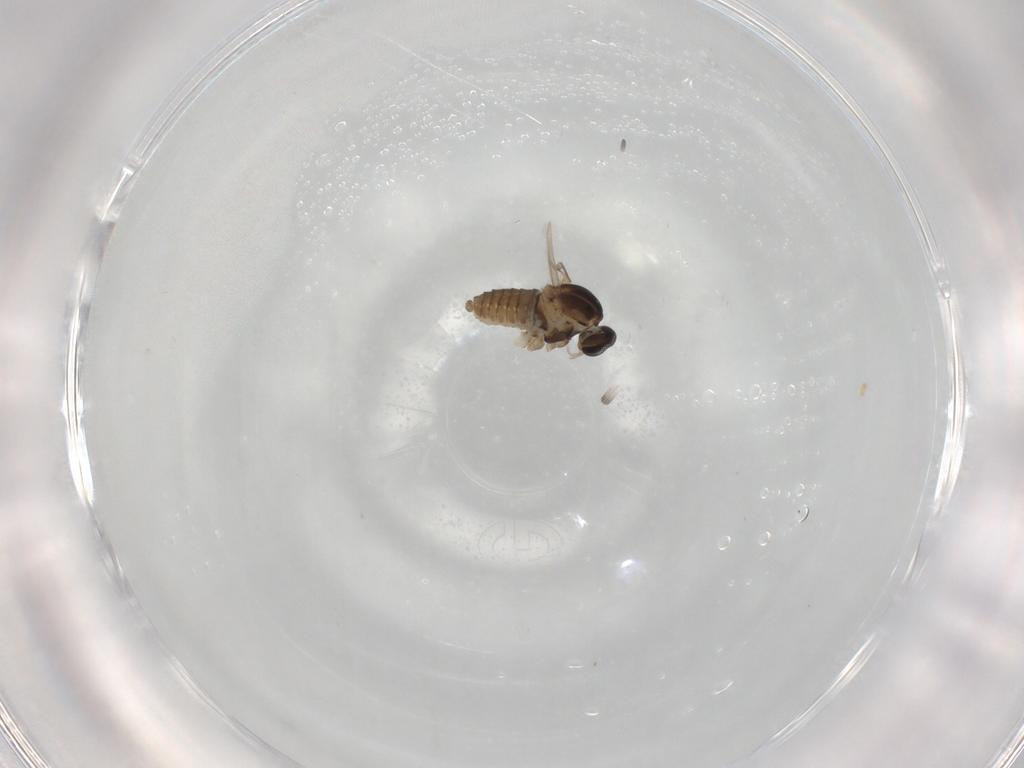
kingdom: Animalia
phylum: Arthropoda
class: Insecta
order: Diptera
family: Cecidomyiidae
